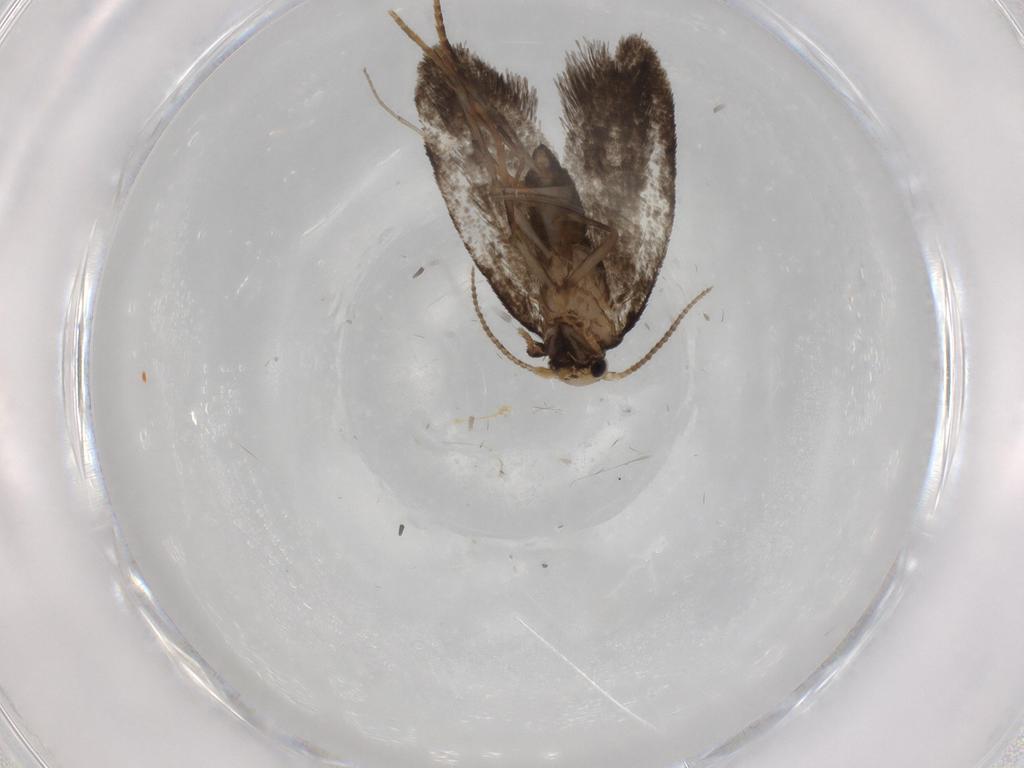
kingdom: Animalia
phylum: Arthropoda
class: Insecta
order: Lepidoptera
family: Psychidae
